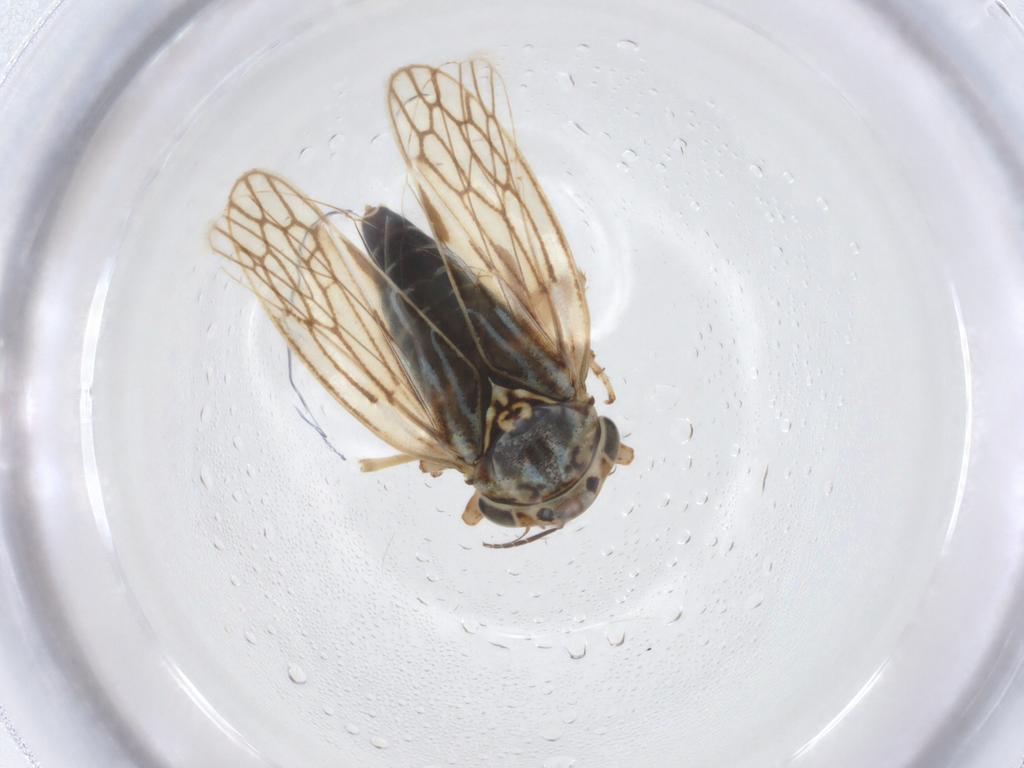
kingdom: Animalia
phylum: Arthropoda
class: Insecta
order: Hemiptera
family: Cicadellidae
